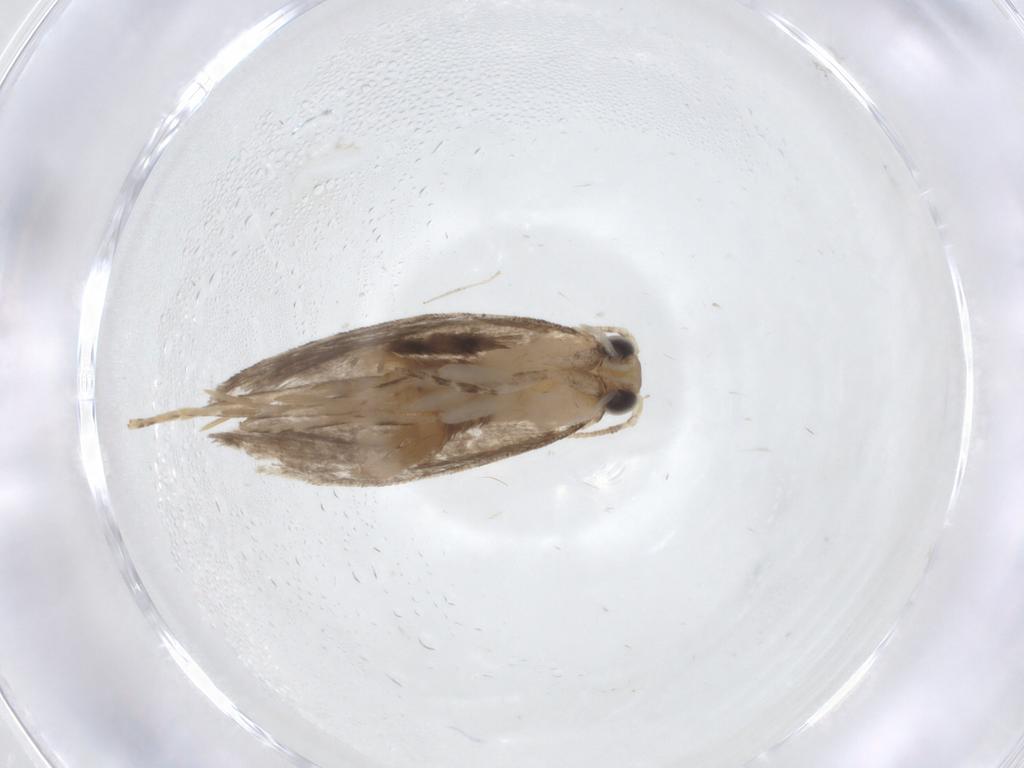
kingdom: Animalia
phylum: Arthropoda
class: Insecta
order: Lepidoptera
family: Tineidae
